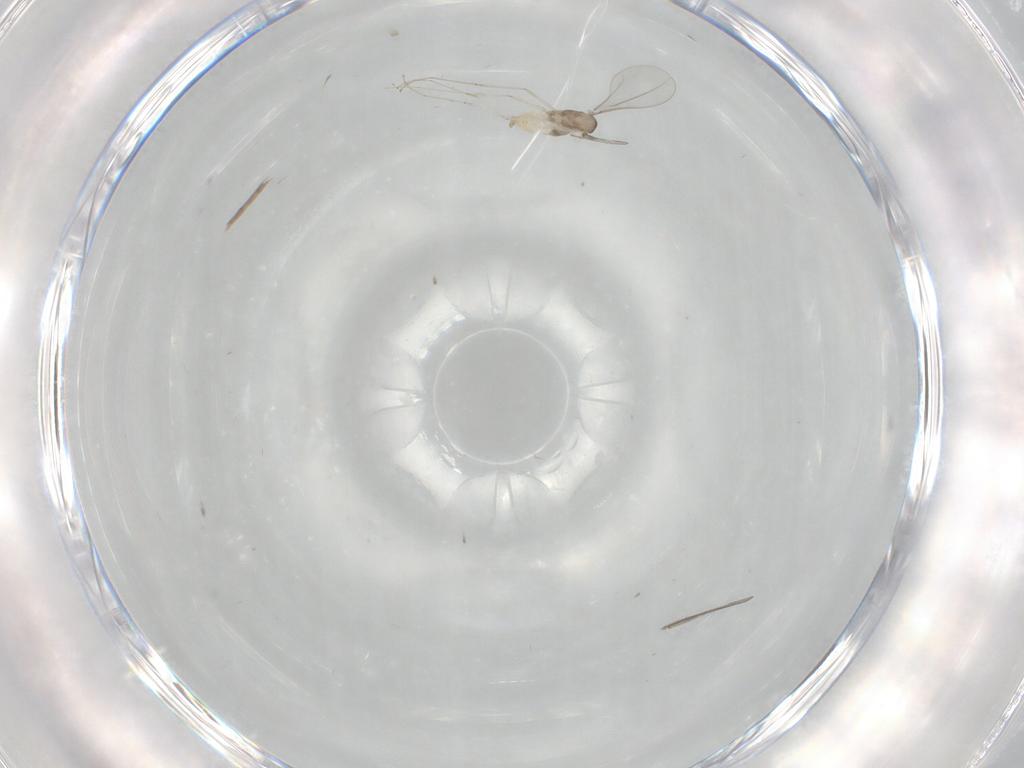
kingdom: Animalia
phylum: Arthropoda
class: Insecta
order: Diptera
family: Cecidomyiidae
